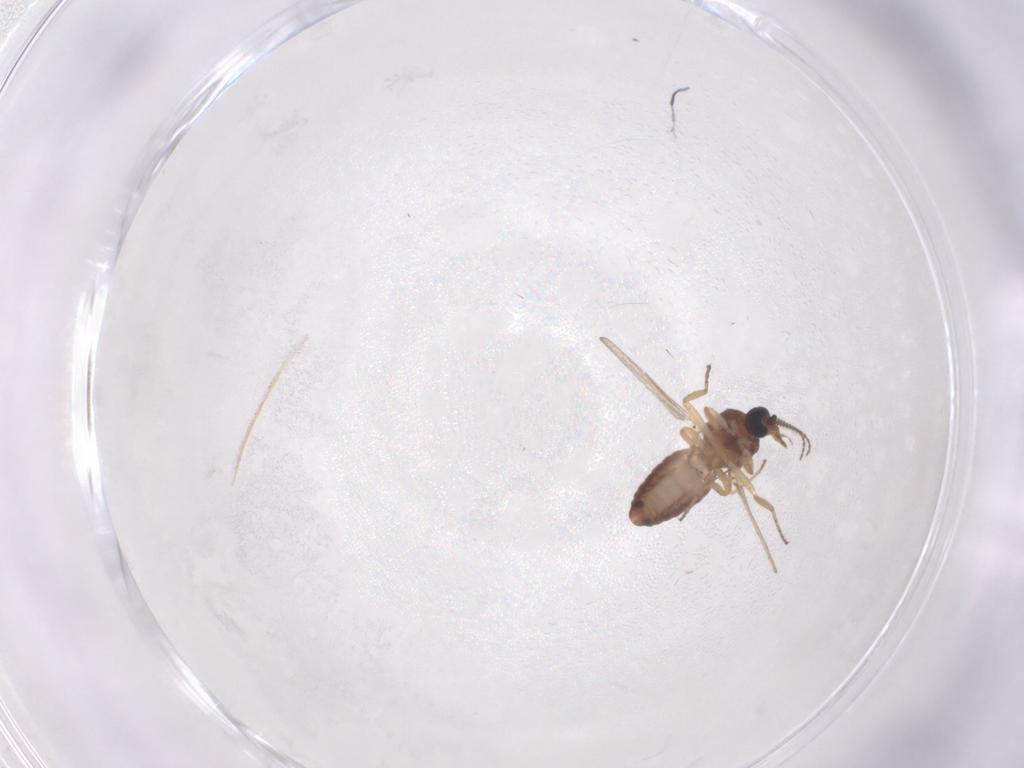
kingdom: Animalia
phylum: Arthropoda
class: Insecta
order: Diptera
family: Ceratopogonidae
